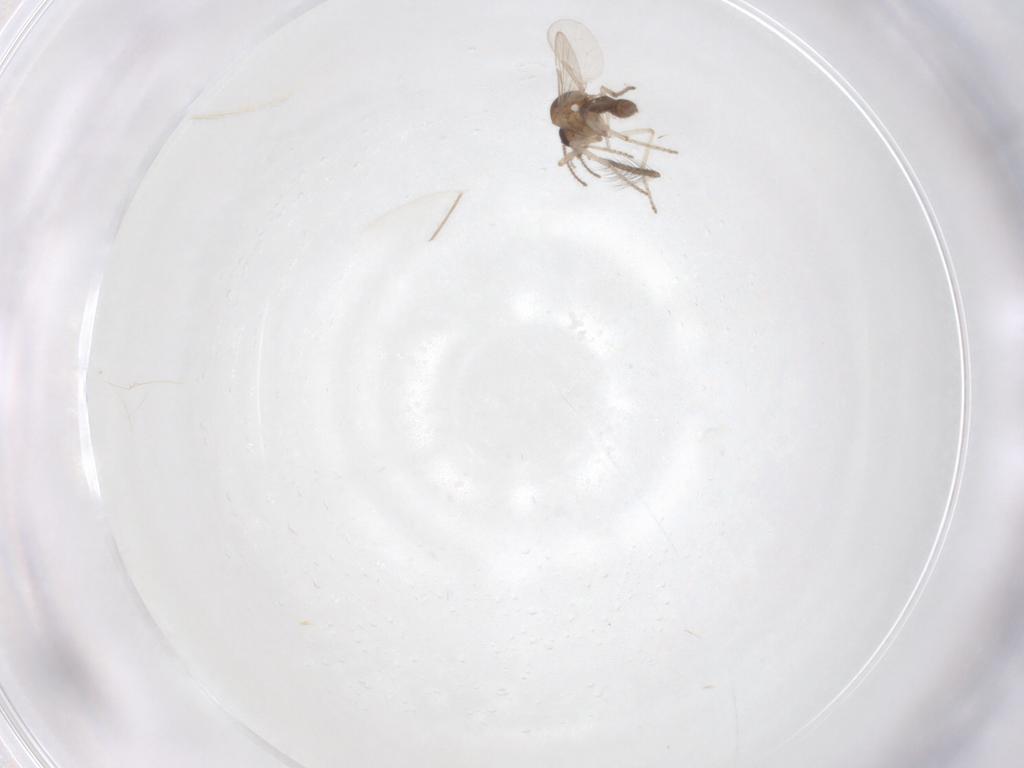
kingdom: Animalia
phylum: Arthropoda
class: Insecta
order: Diptera
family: Ceratopogonidae
